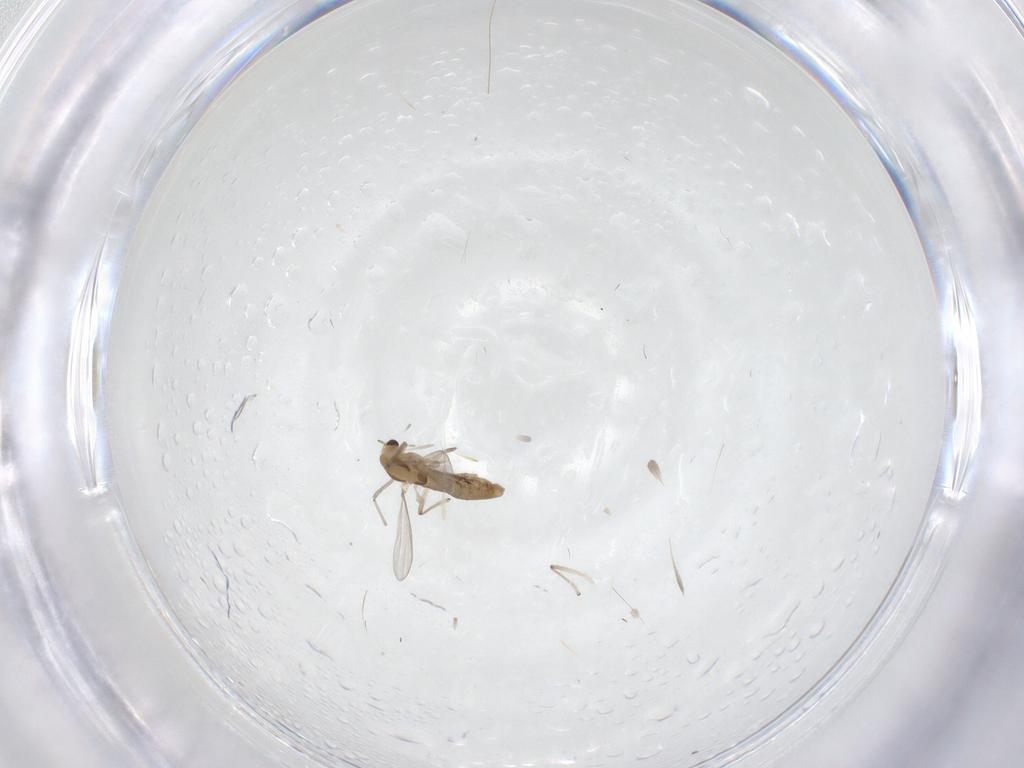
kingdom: Animalia
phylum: Arthropoda
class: Insecta
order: Diptera
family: Chironomidae
